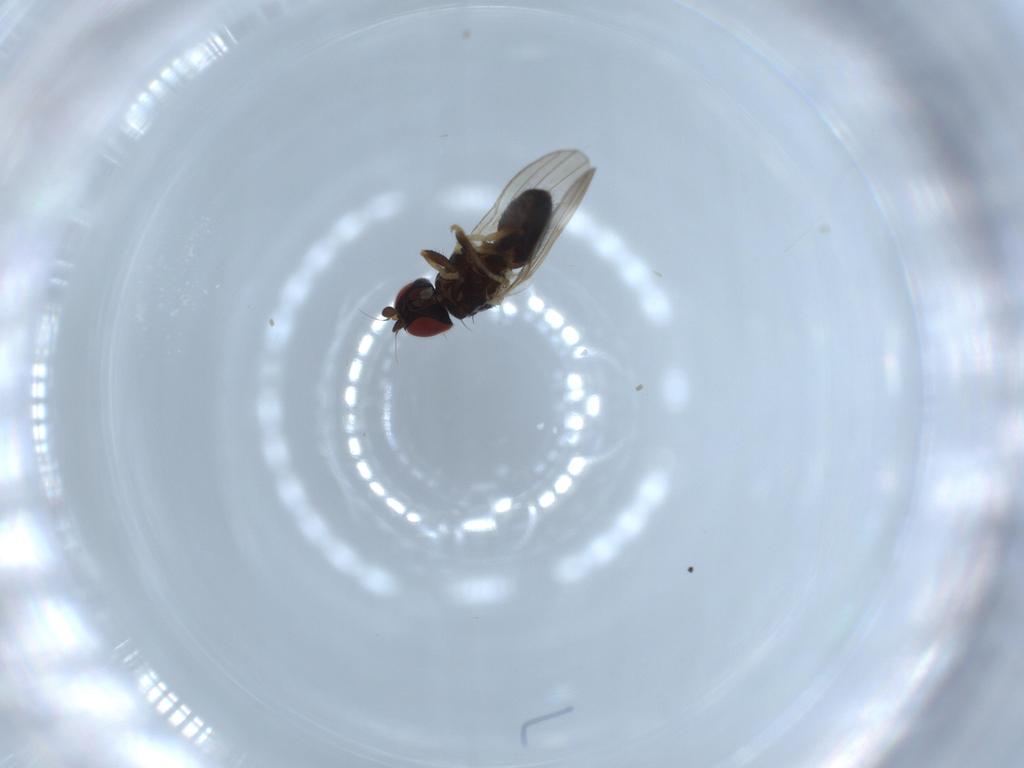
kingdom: Animalia
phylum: Arthropoda
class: Insecta
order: Diptera
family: Chamaemyiidae
